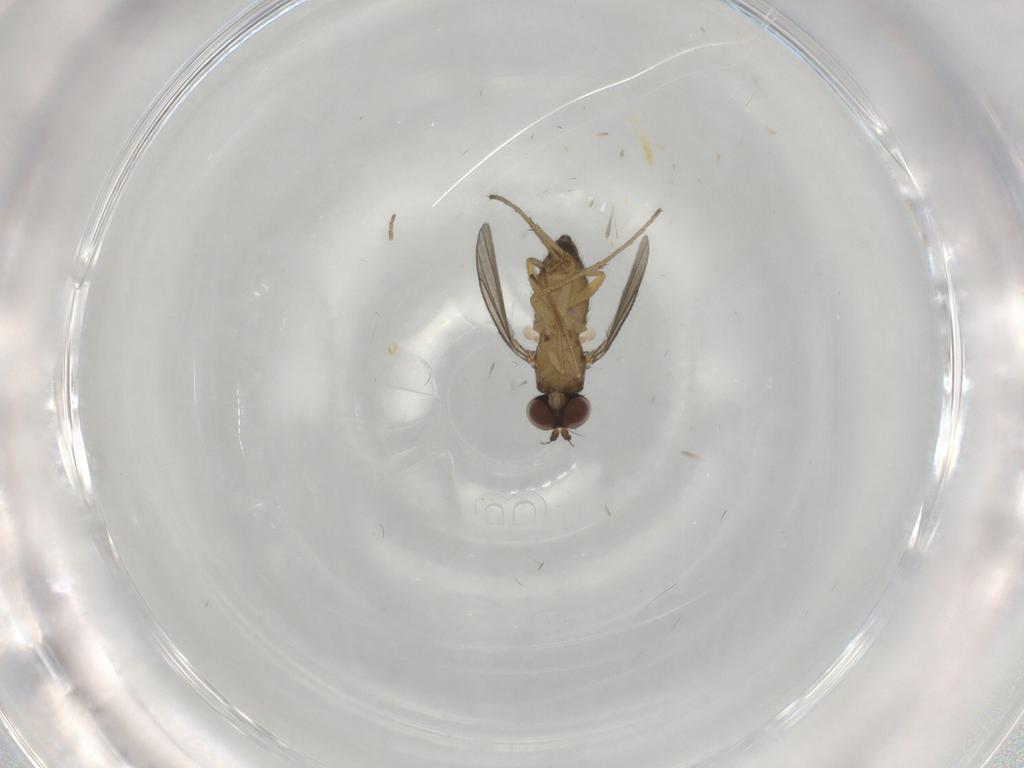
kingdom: Animalia
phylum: Arthropoda
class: Insecta
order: Diptera
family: Dolichopodidae
